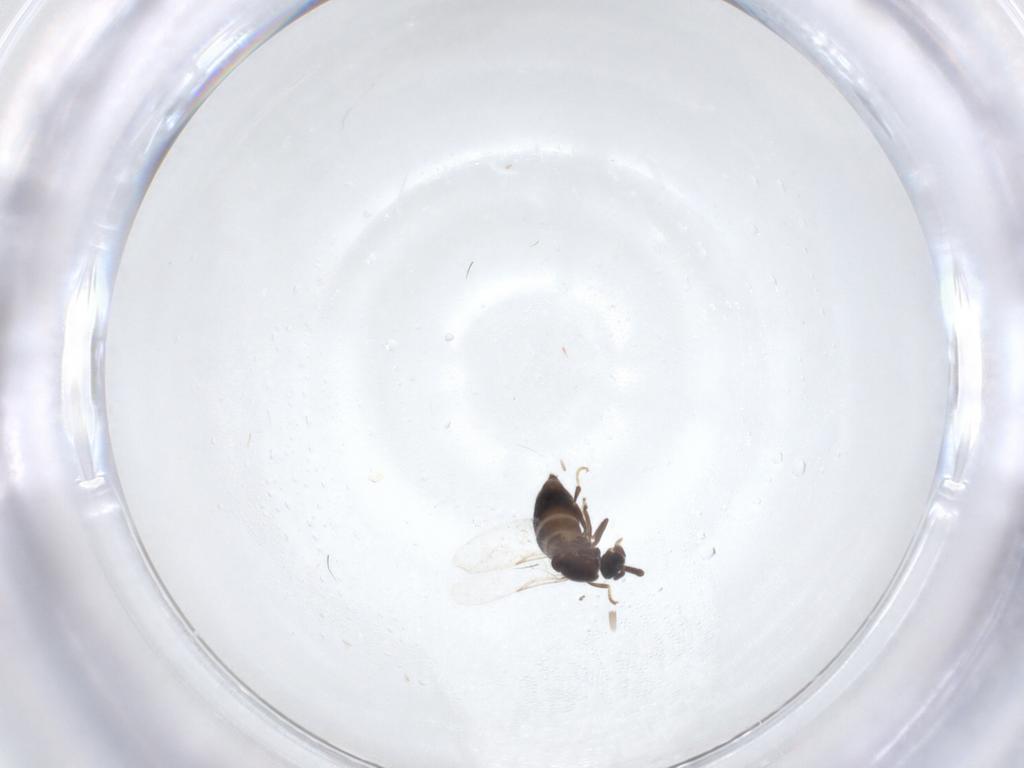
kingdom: Animalia
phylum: Arthropoda
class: Insecta
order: Diptera
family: Scatopsidae
